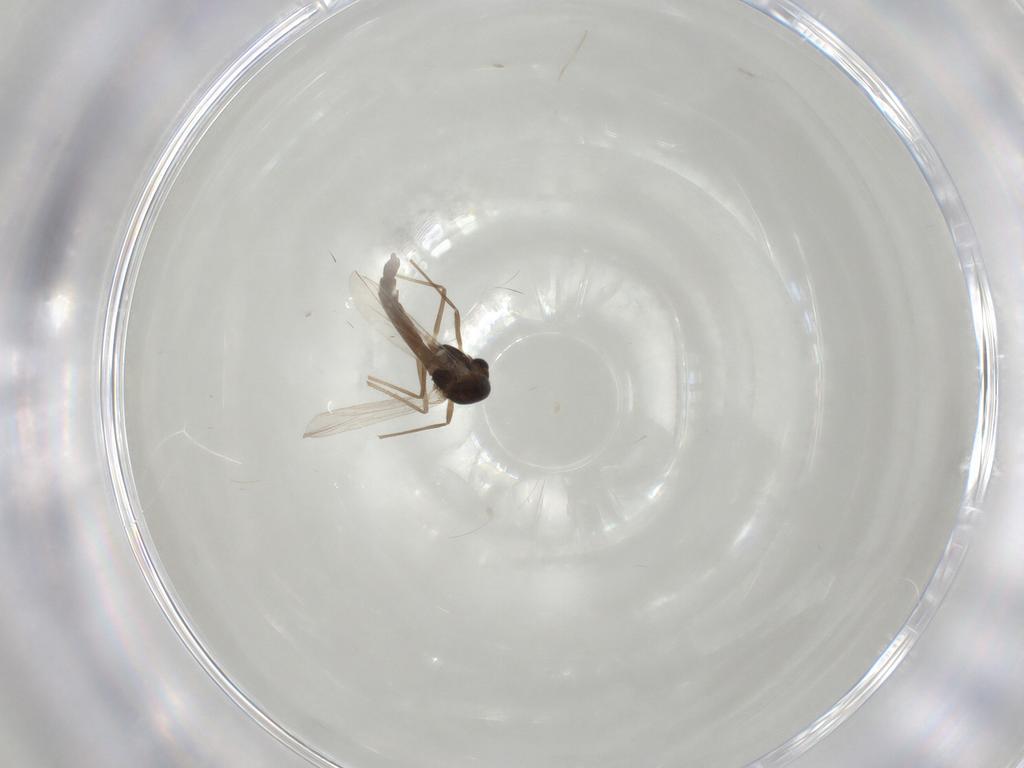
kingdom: Animalia
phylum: Arthropoda
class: Insecta
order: Diptera
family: Chironomidae
